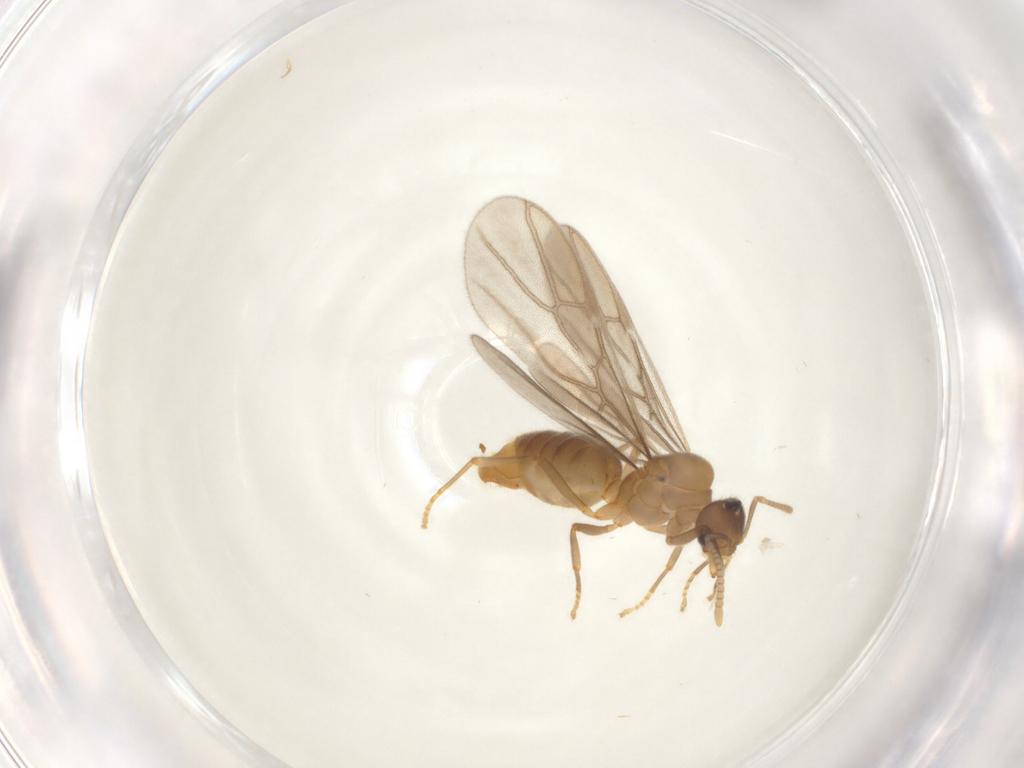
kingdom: Animalia
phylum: Arthropoda
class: Insecta
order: Hymenoptera
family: Formicidae
